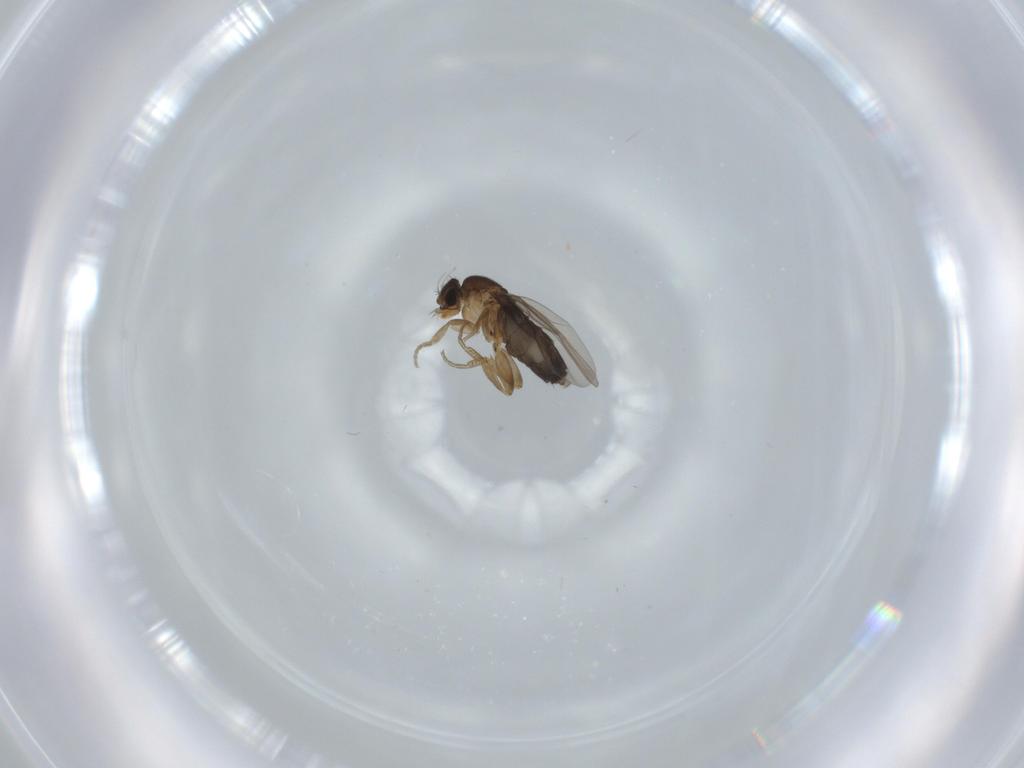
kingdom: Animalia
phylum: Arthropoda
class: Insecta
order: Diptera
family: Phoridae
